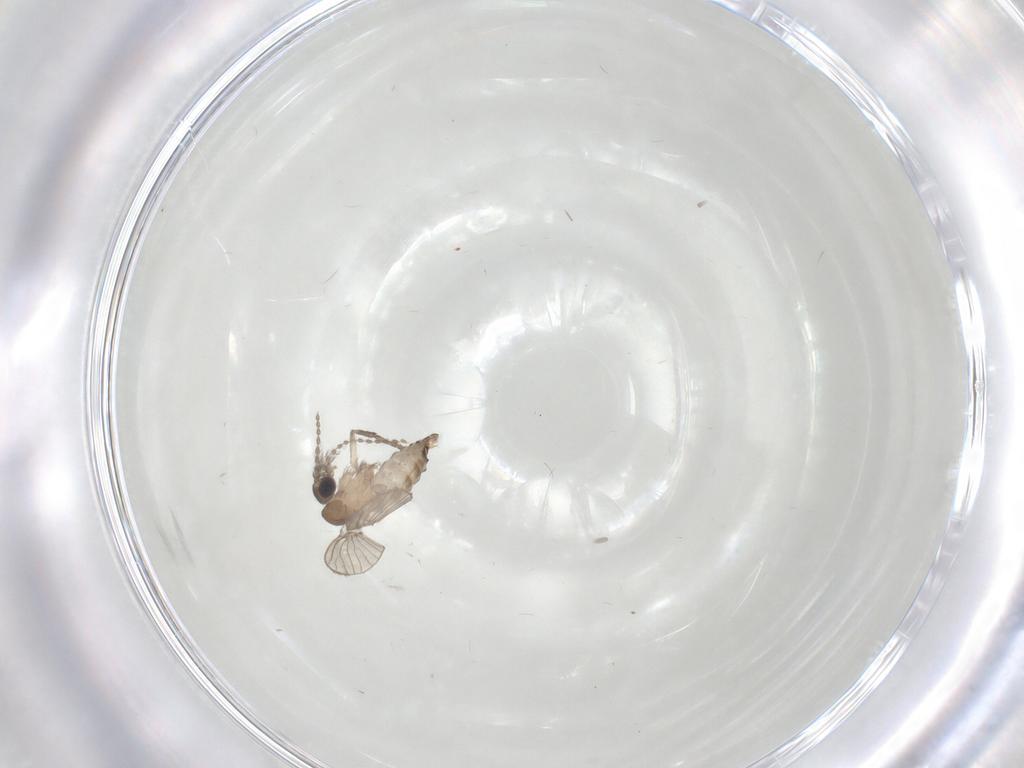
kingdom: Animalia
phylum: Arthropoda
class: Insecta
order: Diptera
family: Psychodidae
